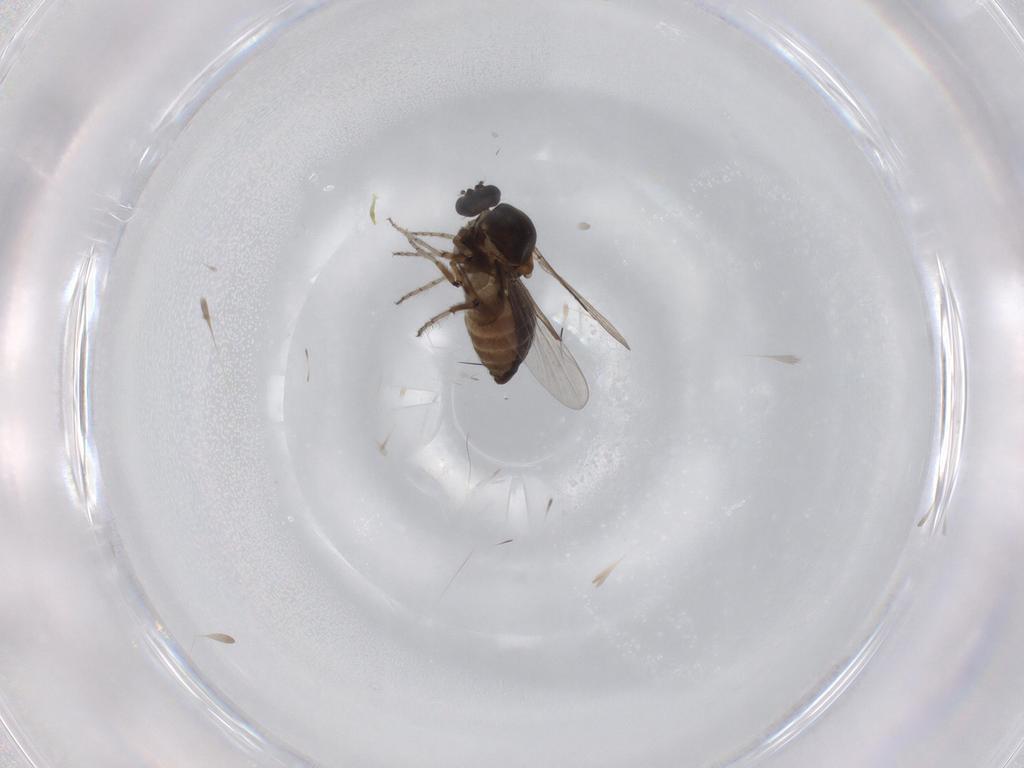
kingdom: Animalia
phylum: Arthropoda
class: Insecta
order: Diptera
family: Ceratopogonidae
